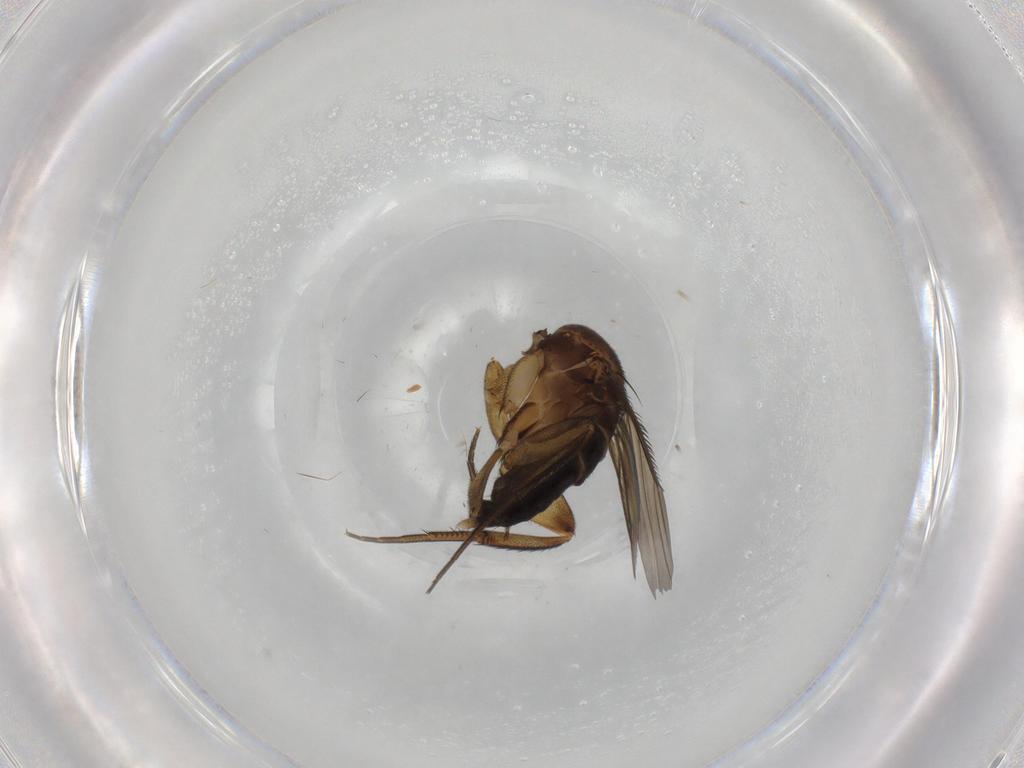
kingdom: Animalia
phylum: Arthropoda
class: Insecta
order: Diptera
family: Phoridae
